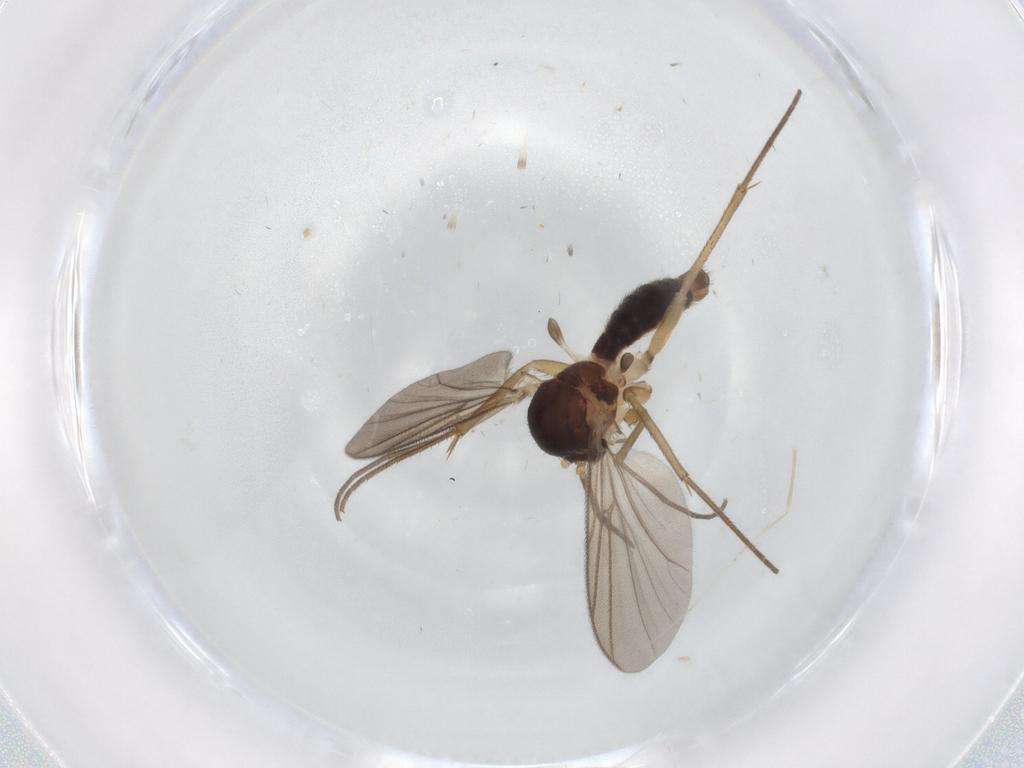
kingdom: Animalia
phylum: Arthropoda
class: Insecta
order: Diptera
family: Mycetophilidae
